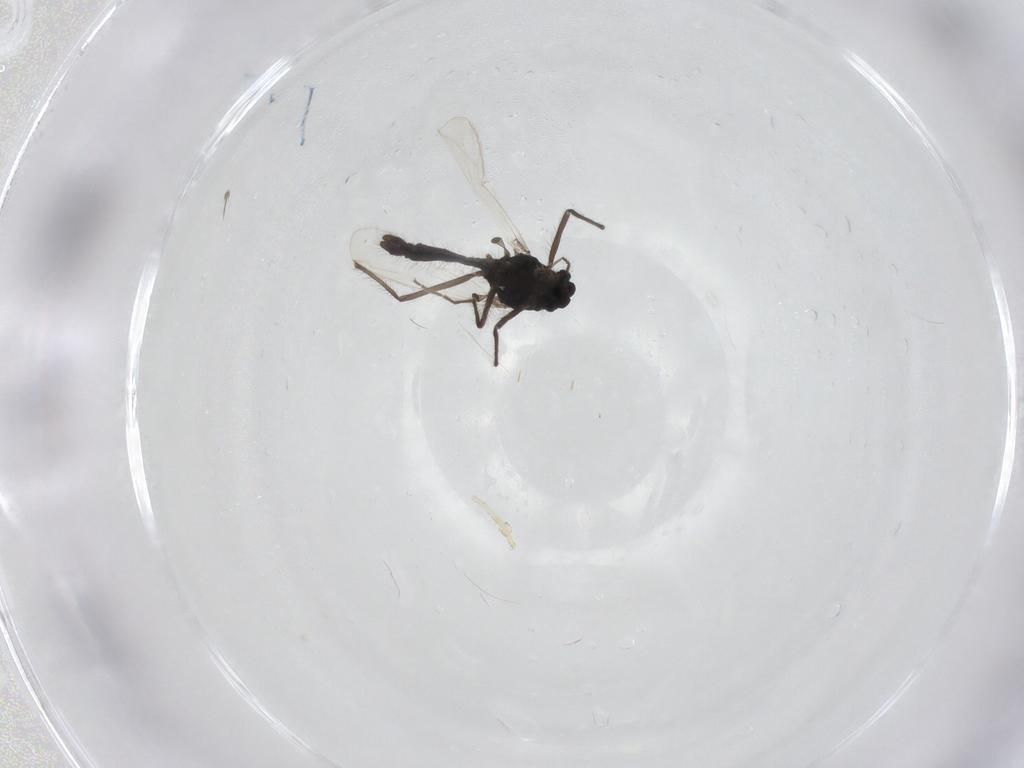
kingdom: Animalia
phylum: Arthropoda
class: Insecta
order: Diptera
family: Chironomidae
